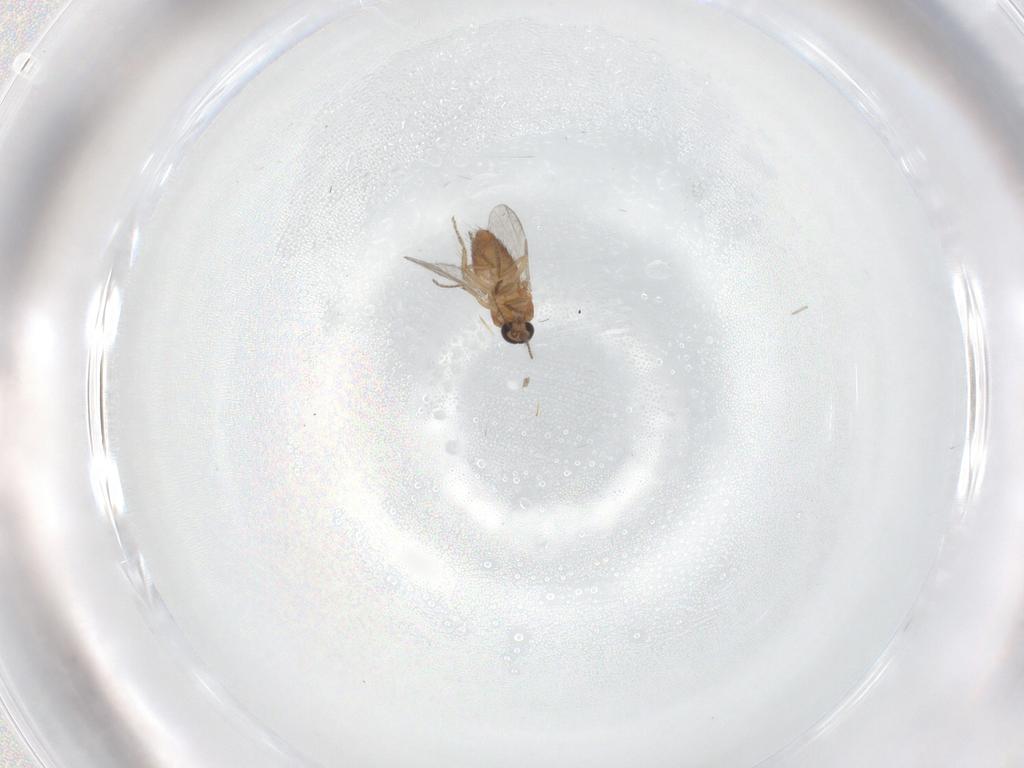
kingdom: Animalia
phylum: Arthropoda
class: Insecta
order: Diptera
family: Ceratopogonidae
